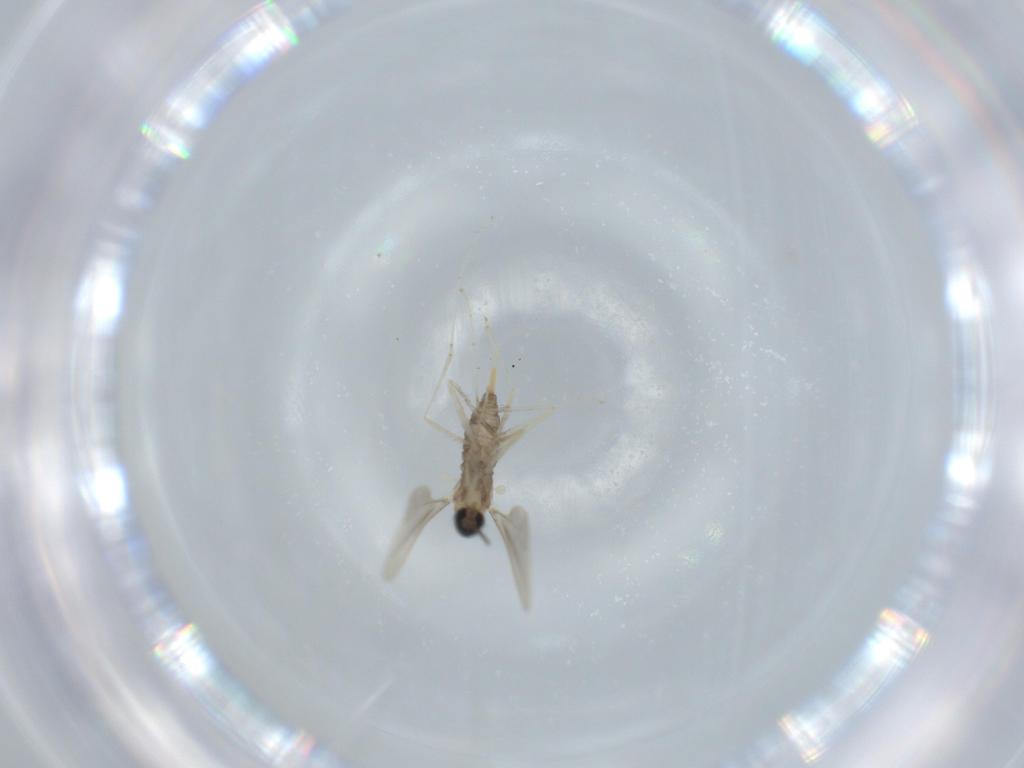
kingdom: Animalia
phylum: Arthropoda
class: Insecta
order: Diptera
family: Cecidomyiidae
